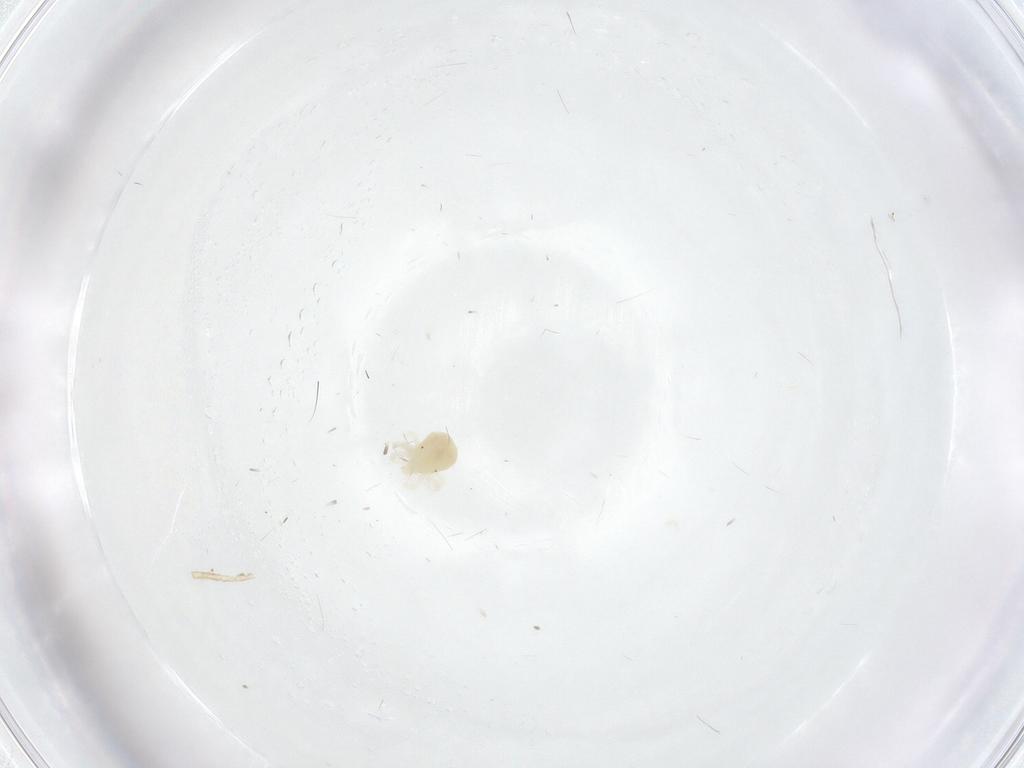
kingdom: Animalia
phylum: Arthropoda
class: Arachnida
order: Trombidiformes
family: Anystidae
